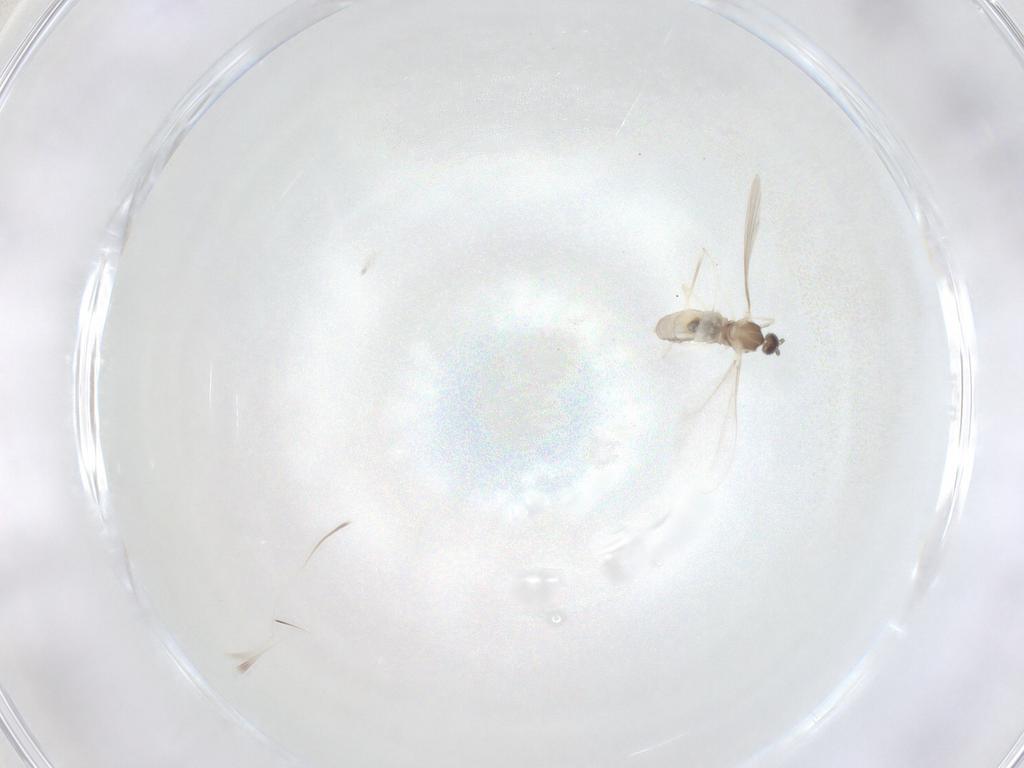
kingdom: Animalia
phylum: Arthropoda
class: Insecta
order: Diptera
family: Cecidomyiidae
